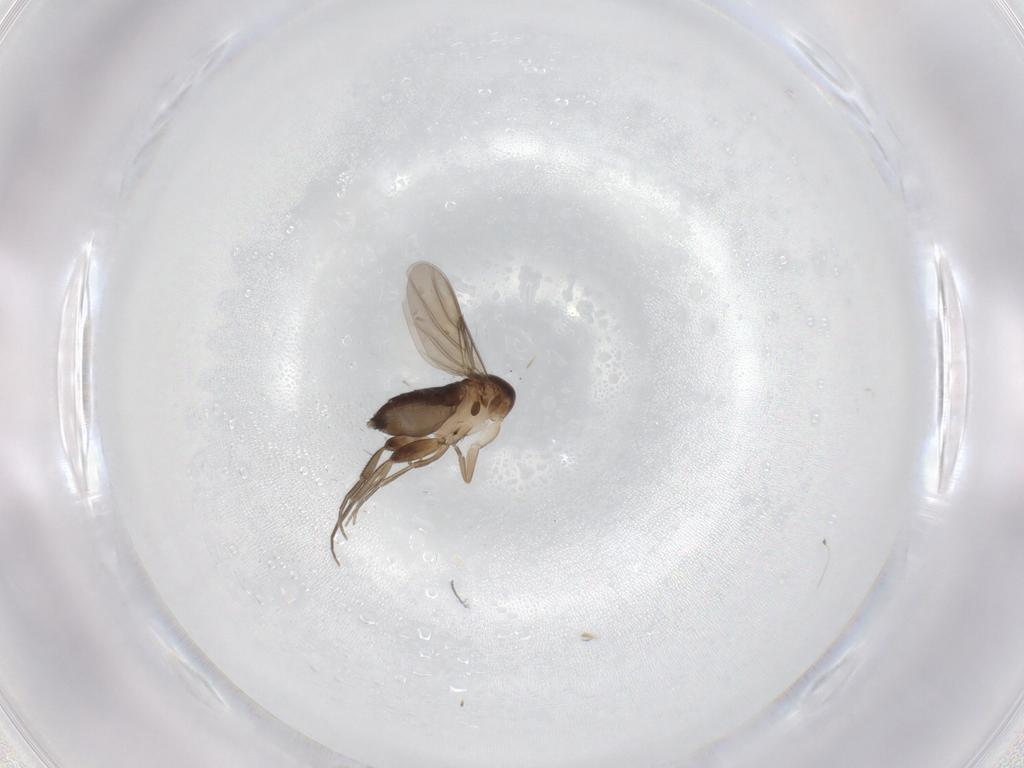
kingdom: Animalia
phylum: Arthropoda
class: Insecta
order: Diptera
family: Phoridae
